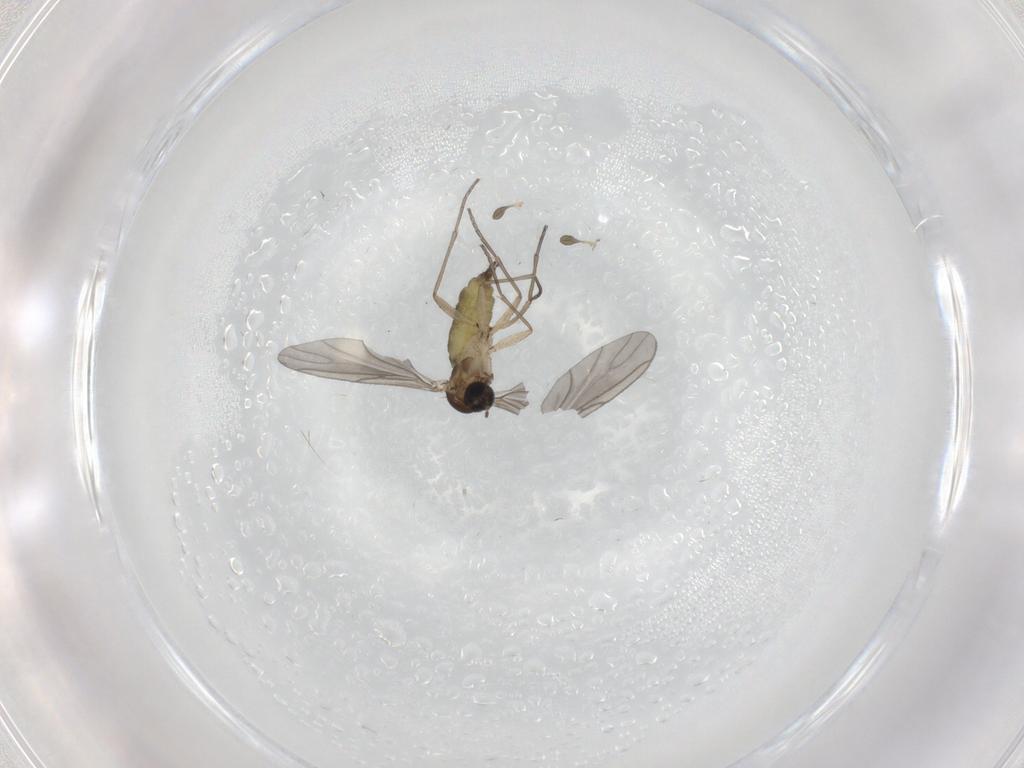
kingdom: Animalia
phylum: Arthropoda
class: Insecta
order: Diptera
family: Sciaridae
